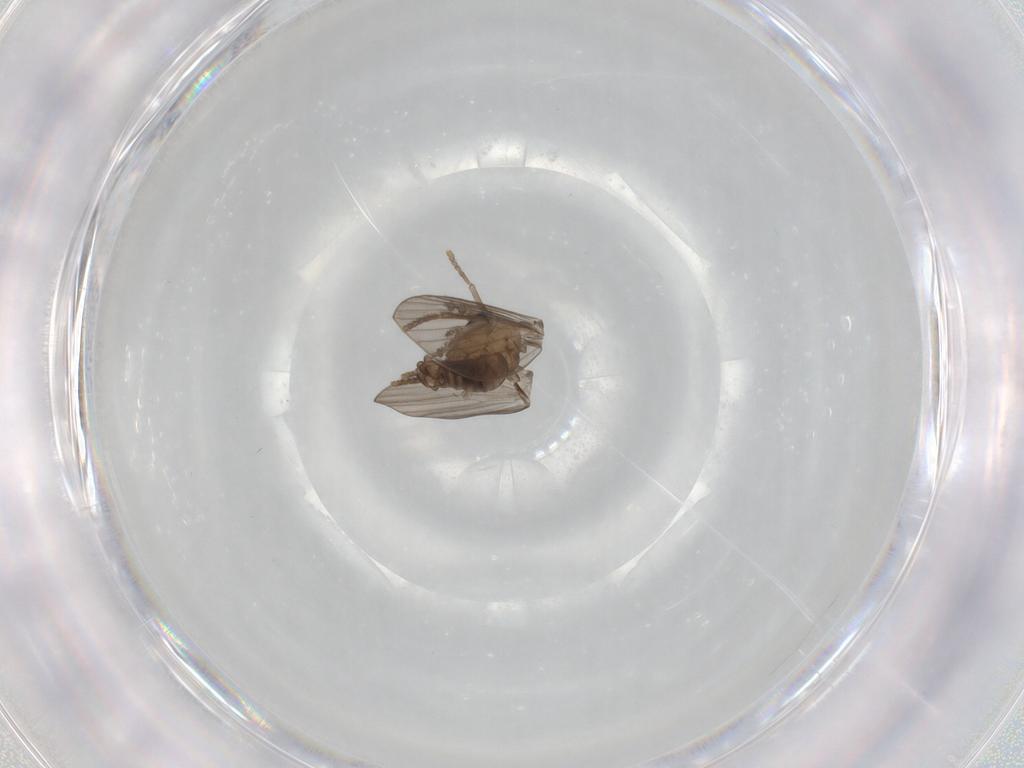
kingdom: Animalia
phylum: Arthropoda
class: Insecta
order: Diptera
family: Psychodidae
